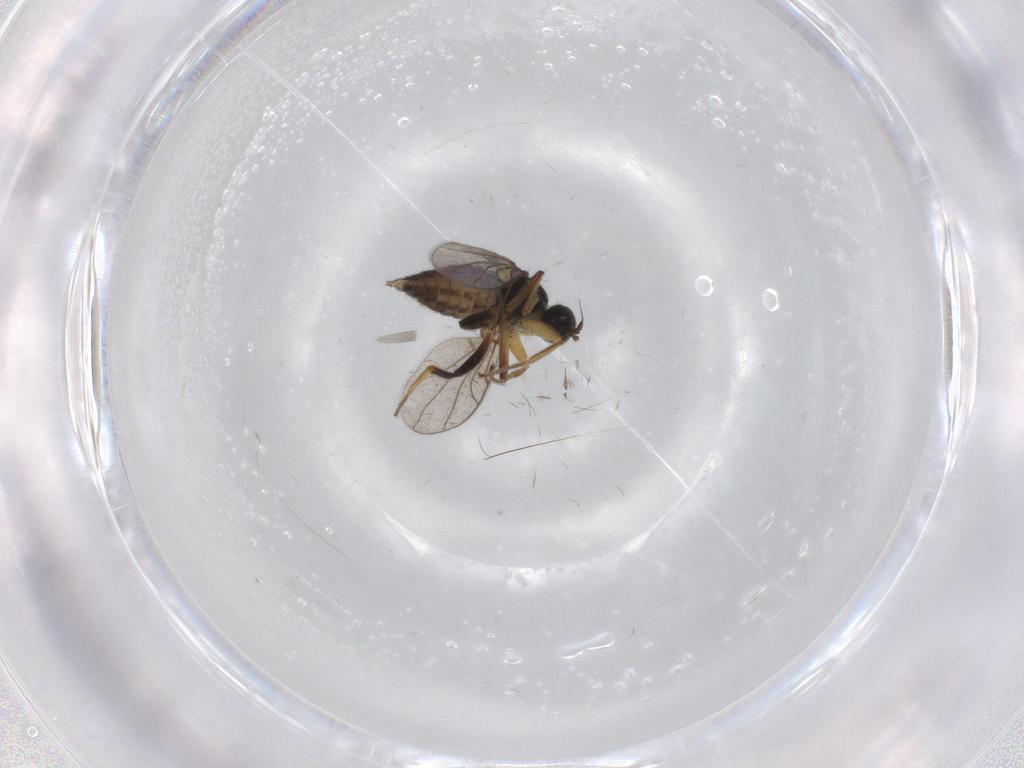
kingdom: Animalia
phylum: Arthropoda
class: Insecta
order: Diptera
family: Hybotidae
